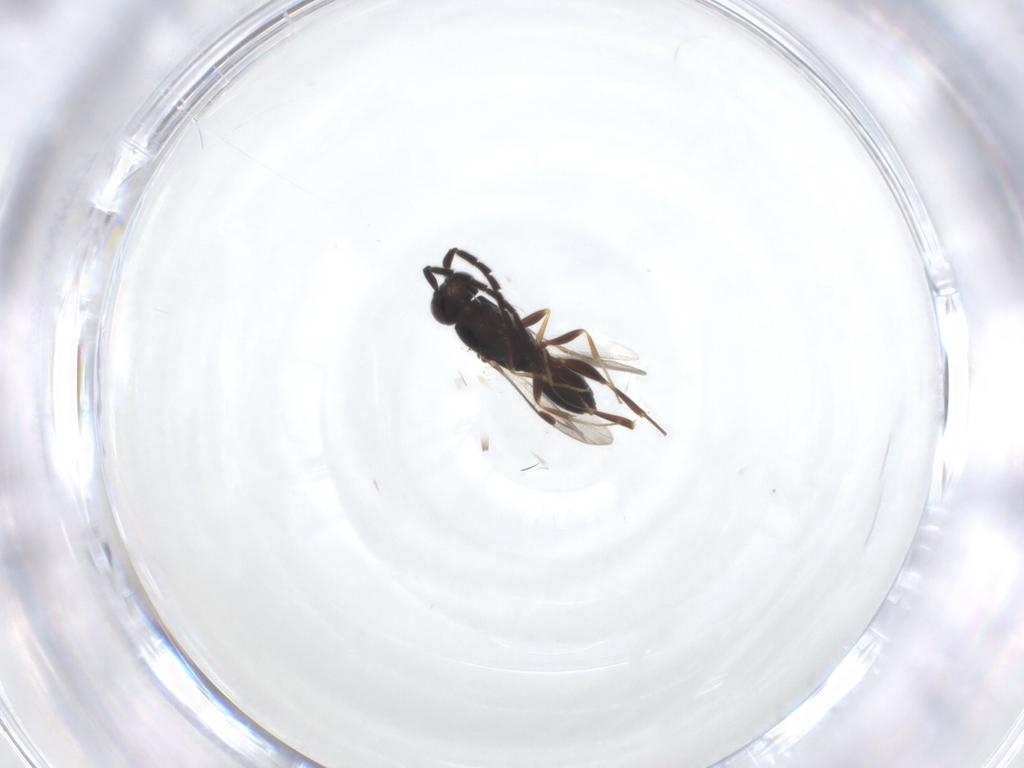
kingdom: Animalia
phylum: Arthropoda
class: Insecta
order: Hymenoptera
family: Megaspilidae
